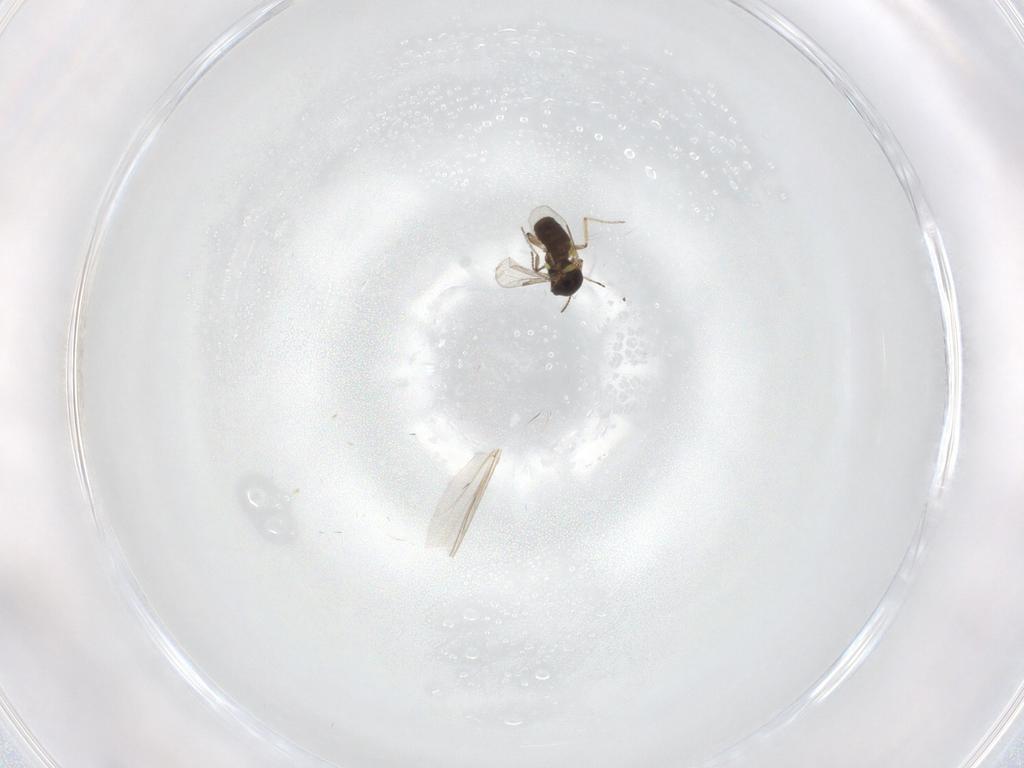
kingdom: Animalia
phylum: Arthropoda
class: Insecta
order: Diptera
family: Ceratopogonidae
